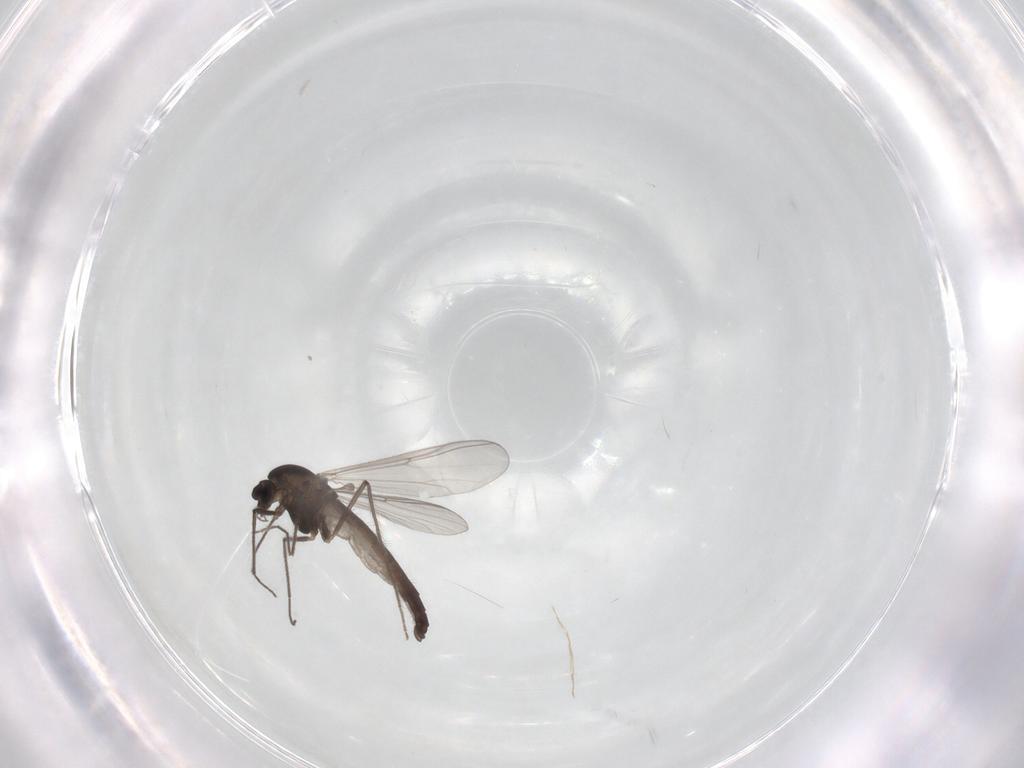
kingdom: Animalia
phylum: Arthropoda
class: Insecta
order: Diptera
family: Chironomidae
